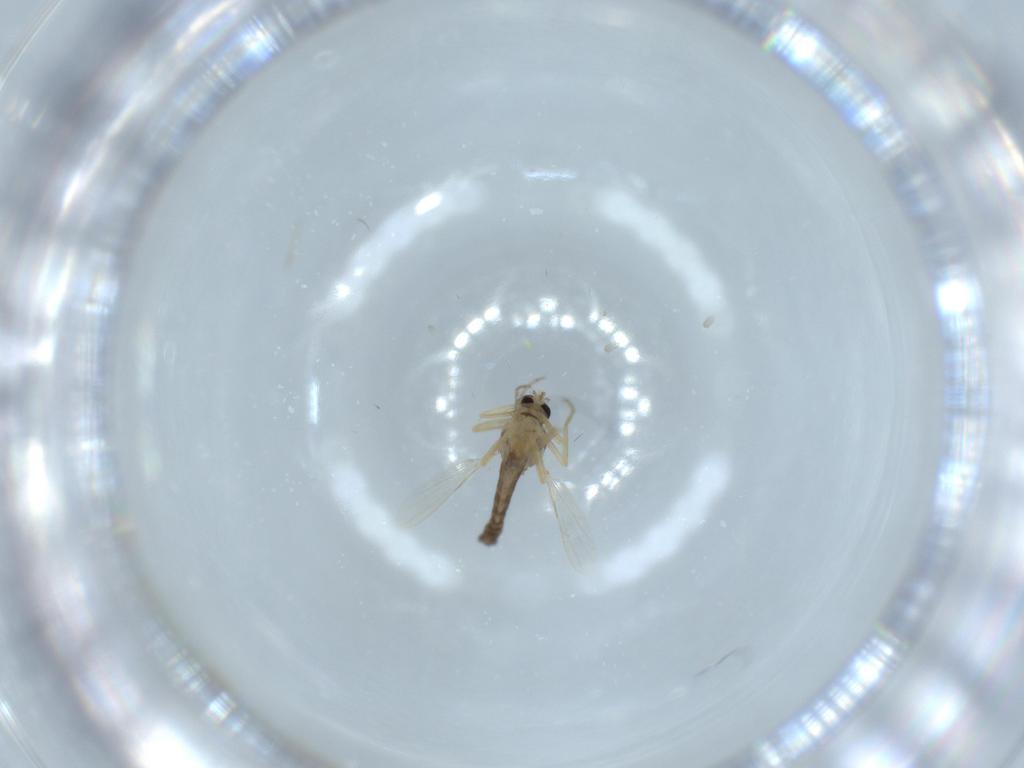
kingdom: Animalia
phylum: Arthropoda
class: Insecta
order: Diptera
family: Ceratopogonidae
